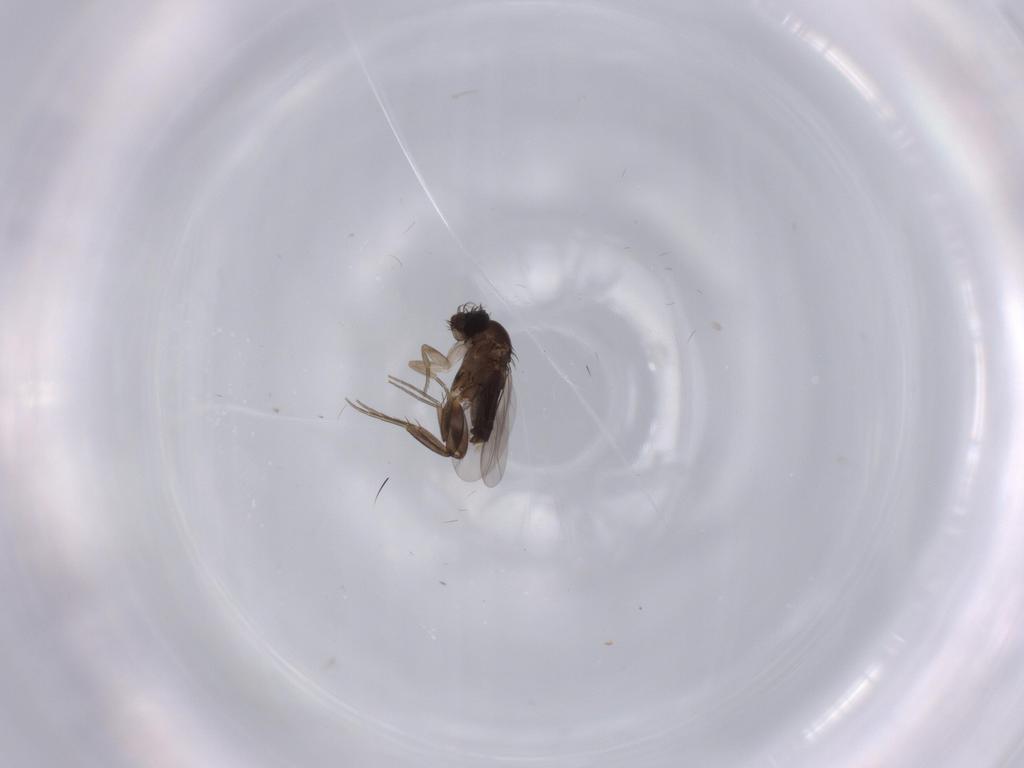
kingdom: Animalia
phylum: Arthropoda
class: Insecta
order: Diptera
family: Phoridae
